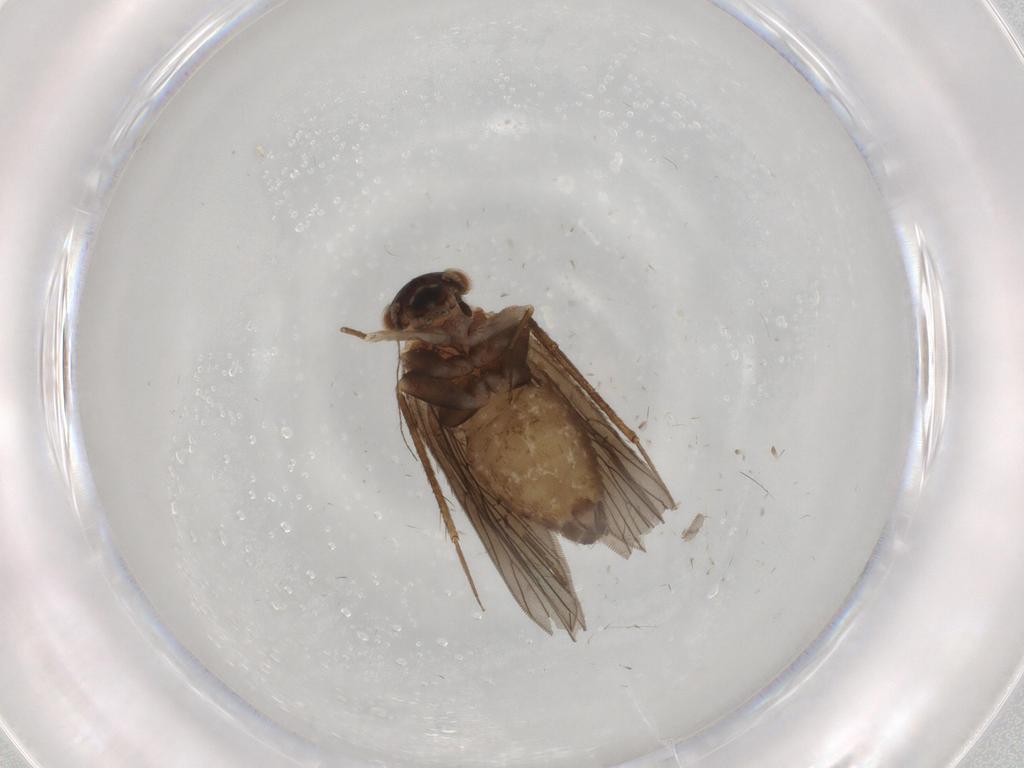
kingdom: Animalia
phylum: Arthropoda
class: Insecta
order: Psocodea
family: Lepidopsocidae
